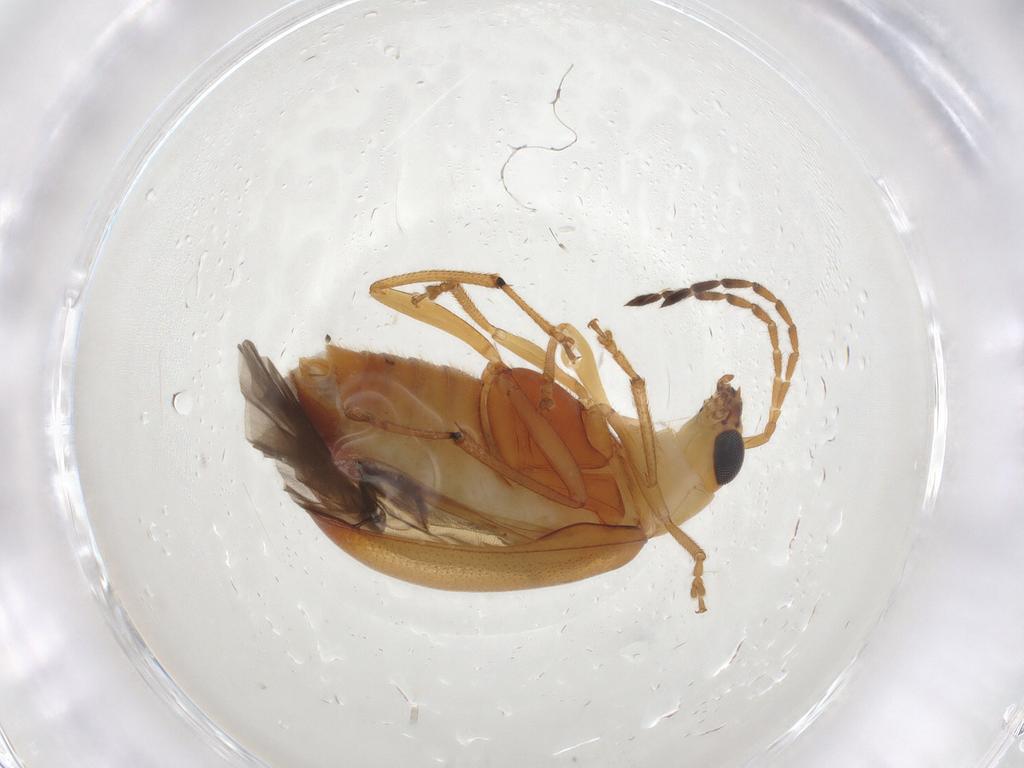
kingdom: Animalia
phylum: Arthropoda
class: Insecta
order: Coleoptera
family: Chrysomelidae
